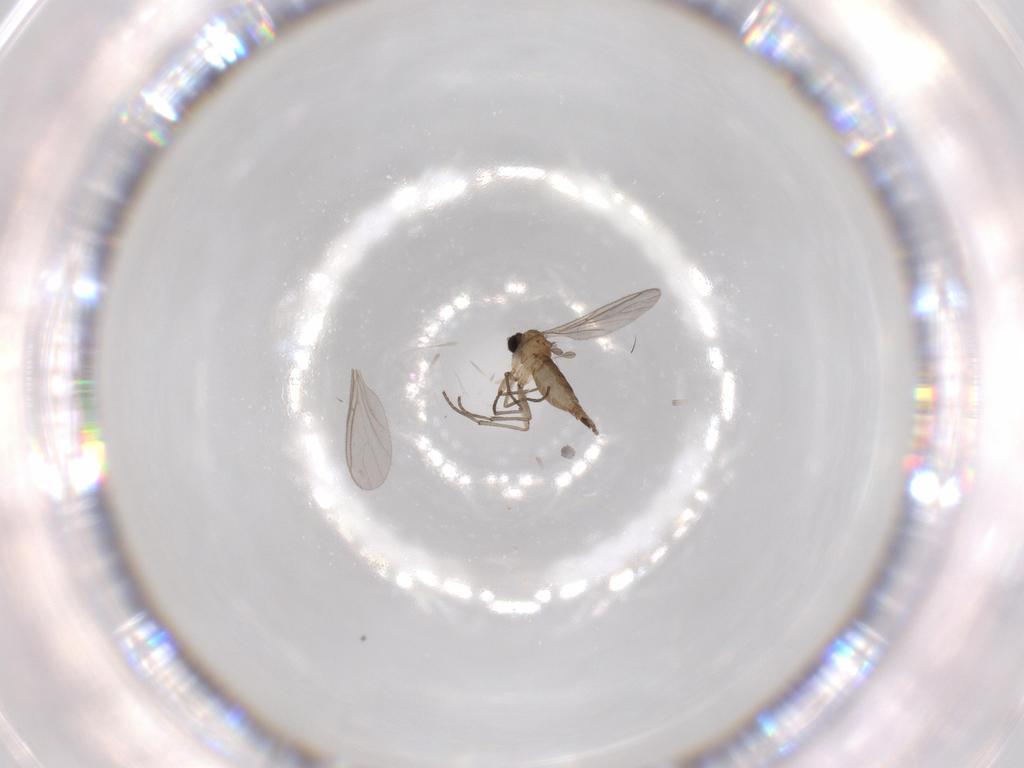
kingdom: Animalia
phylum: Arthropoda
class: Insecta
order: Diptera
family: Sciaridae
